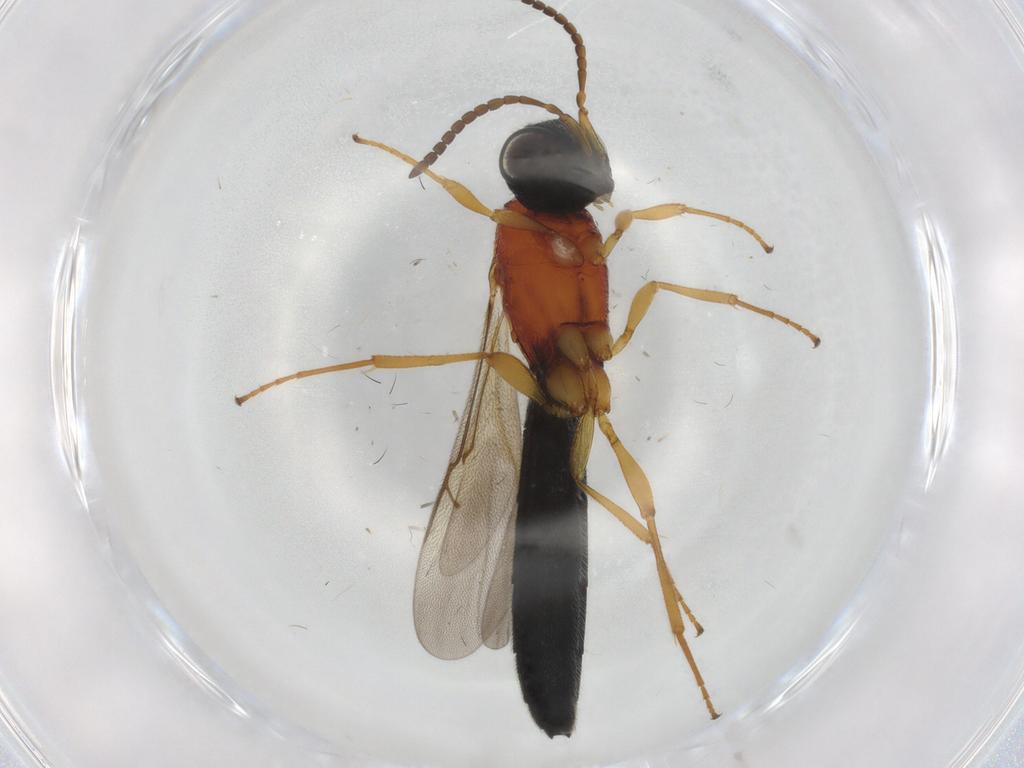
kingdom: Animalia
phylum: Arthropoda
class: Insecta
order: Hymenoptera
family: Scelionidae
